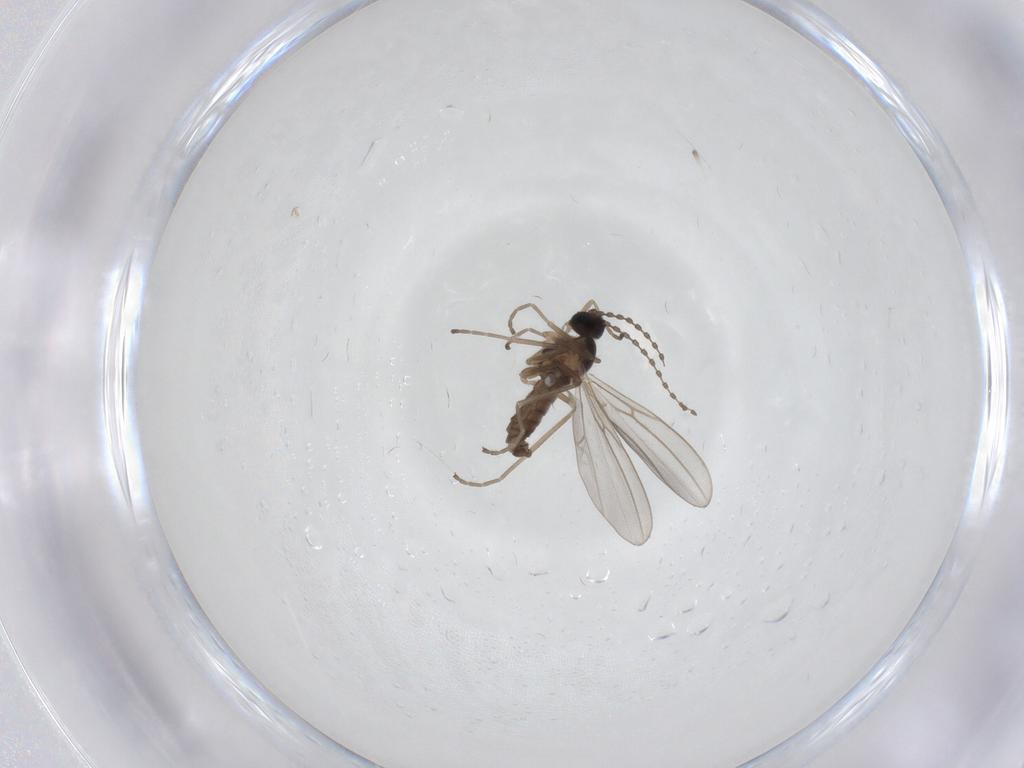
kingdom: Animalia
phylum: Arthropoda
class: Insecta
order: Diptera
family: Cecidomyiidae
